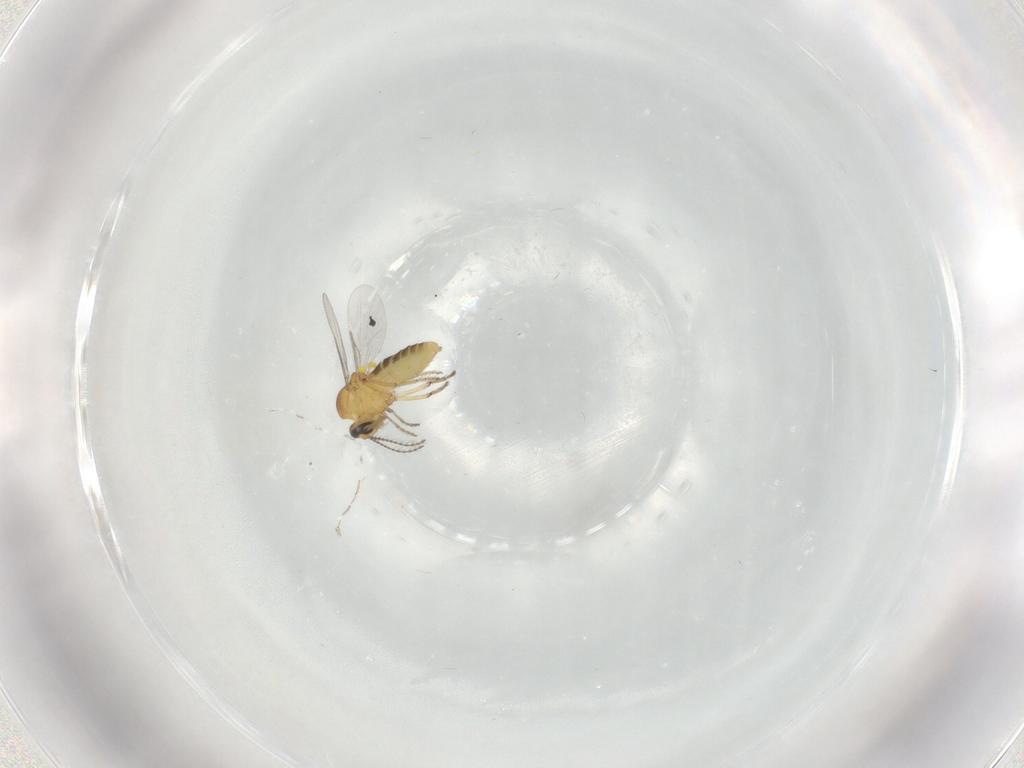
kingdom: Animalia
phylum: Arthropoda
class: Insecta
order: Diptera
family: Ceratopogonidae
